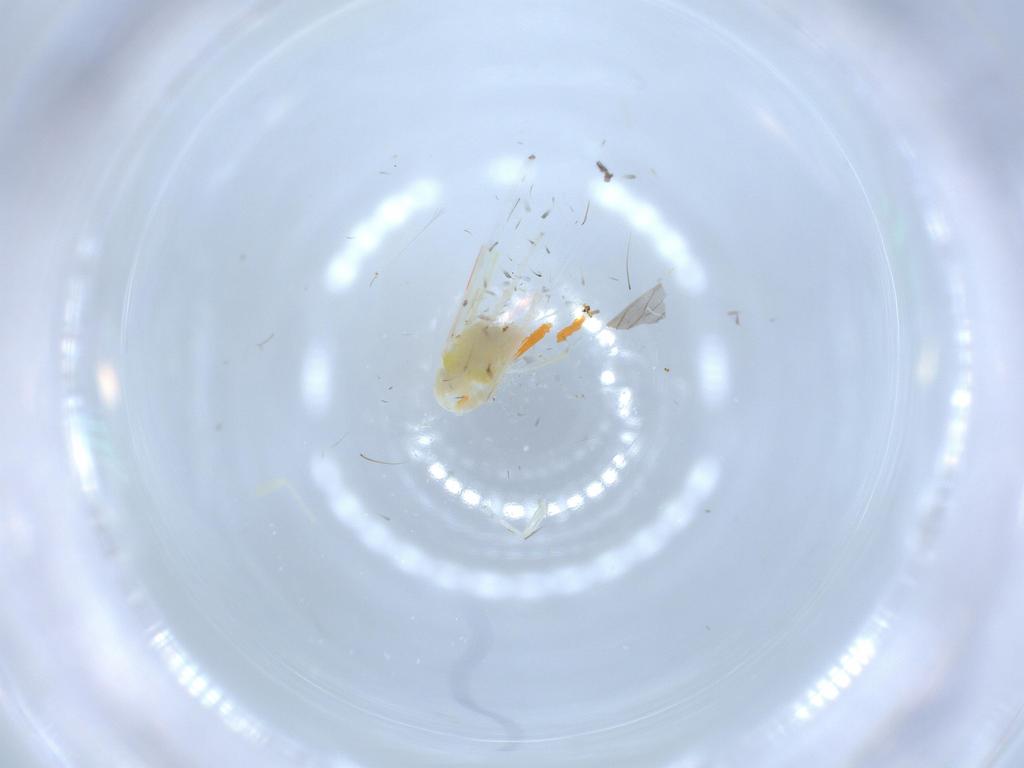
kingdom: Animalia
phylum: Arthropoda
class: Insecta
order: Hemiptera
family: Cicadellidae
